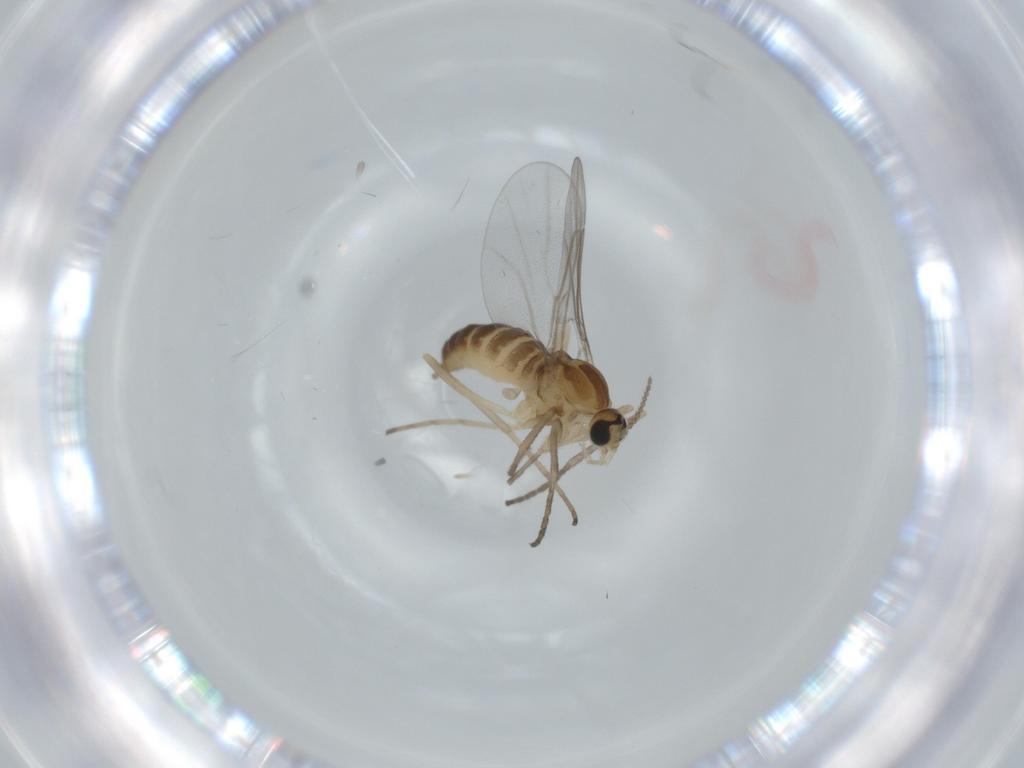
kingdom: Animalia
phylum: Arthropoda
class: Insecta
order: Diptera
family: Cecidomyiidae
